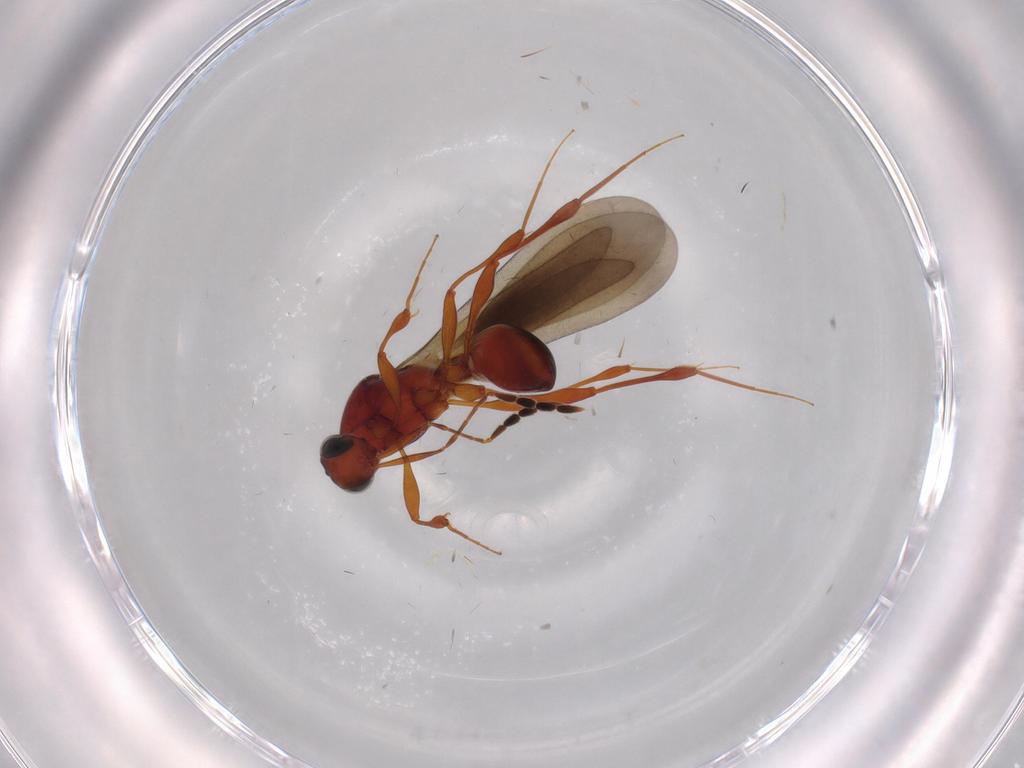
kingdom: Animalia
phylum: Arthropoda
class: Insecta
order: Hymenoptera
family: Platygastridae
